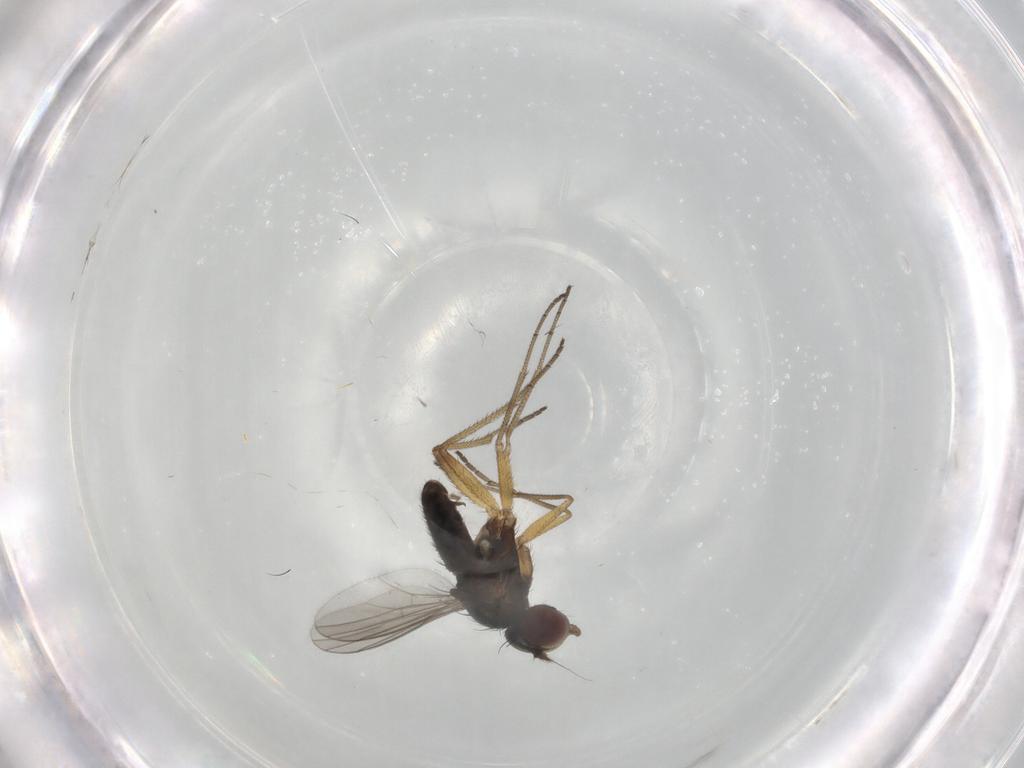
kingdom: Animalia
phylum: Arthropoda
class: Insecta
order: Diptera
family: Dolichopodidae
